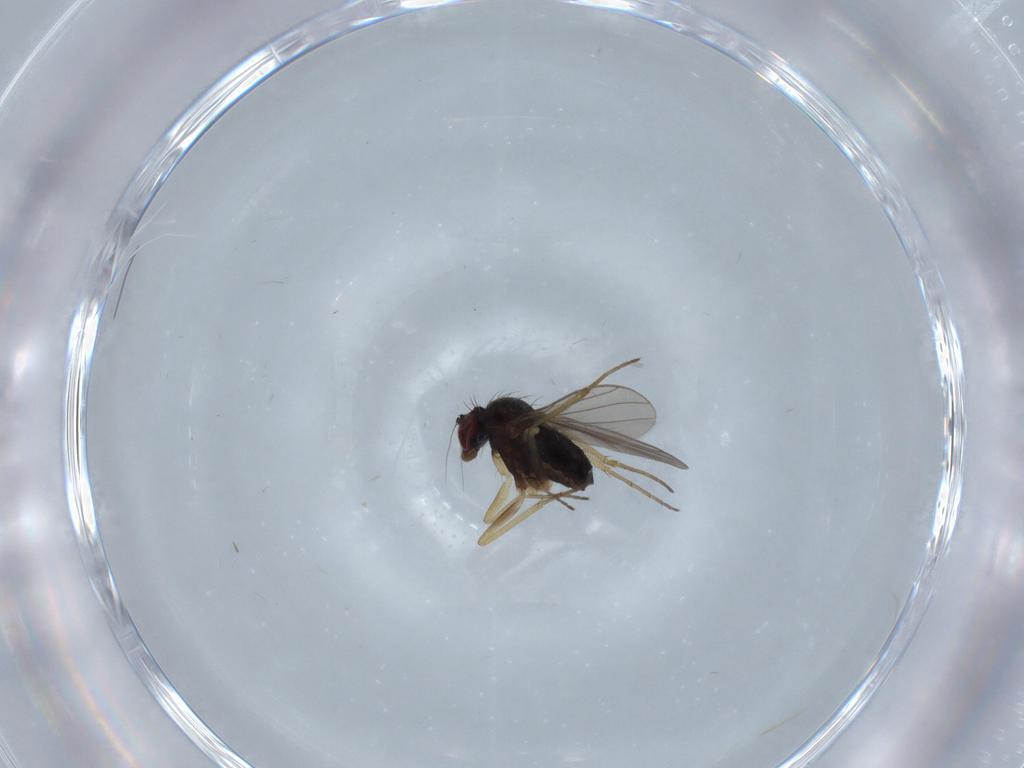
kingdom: Animalia
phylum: Arthropoda
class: Insecta
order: Diptera
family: Dolichopodidae
